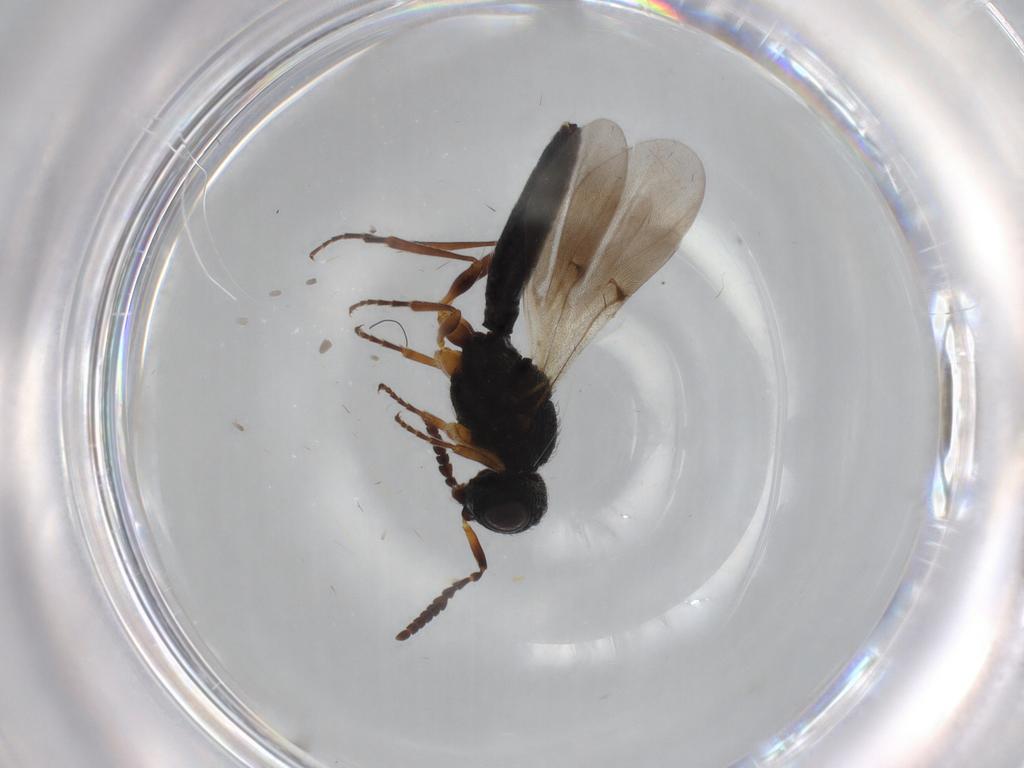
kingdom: Animalia
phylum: Arthropoda
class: Insecta
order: Hymenoptera
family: Scelionidae
